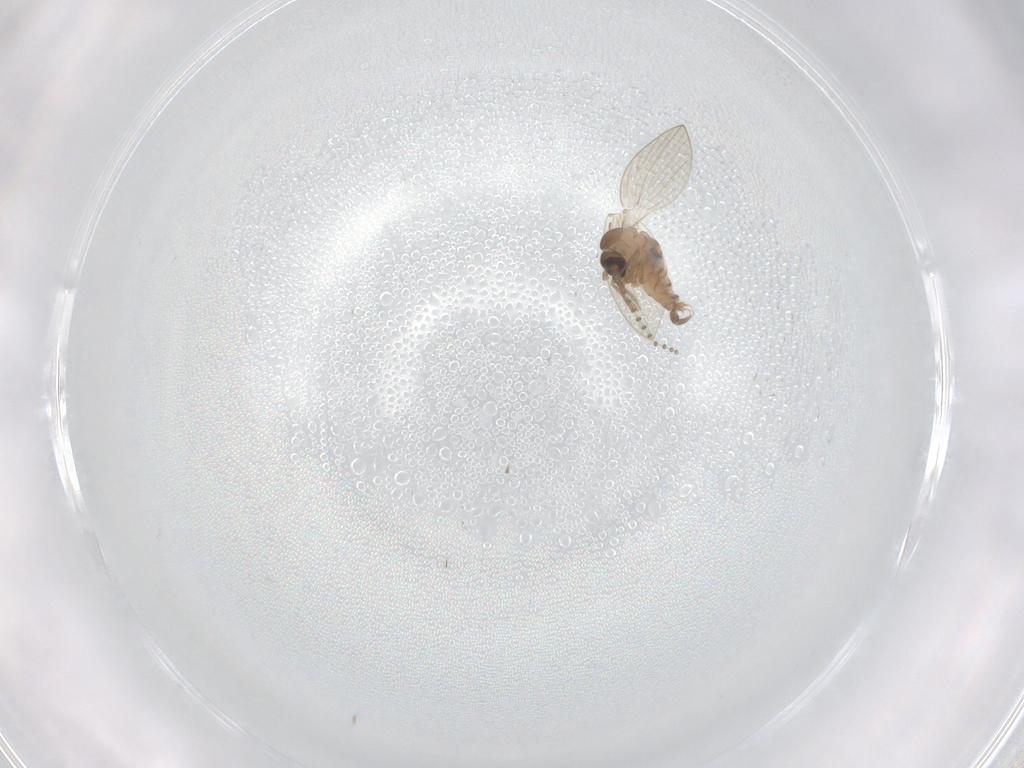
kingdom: Animalia
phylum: Arthropoda
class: Insecta
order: Diptera
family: Psychodidae
